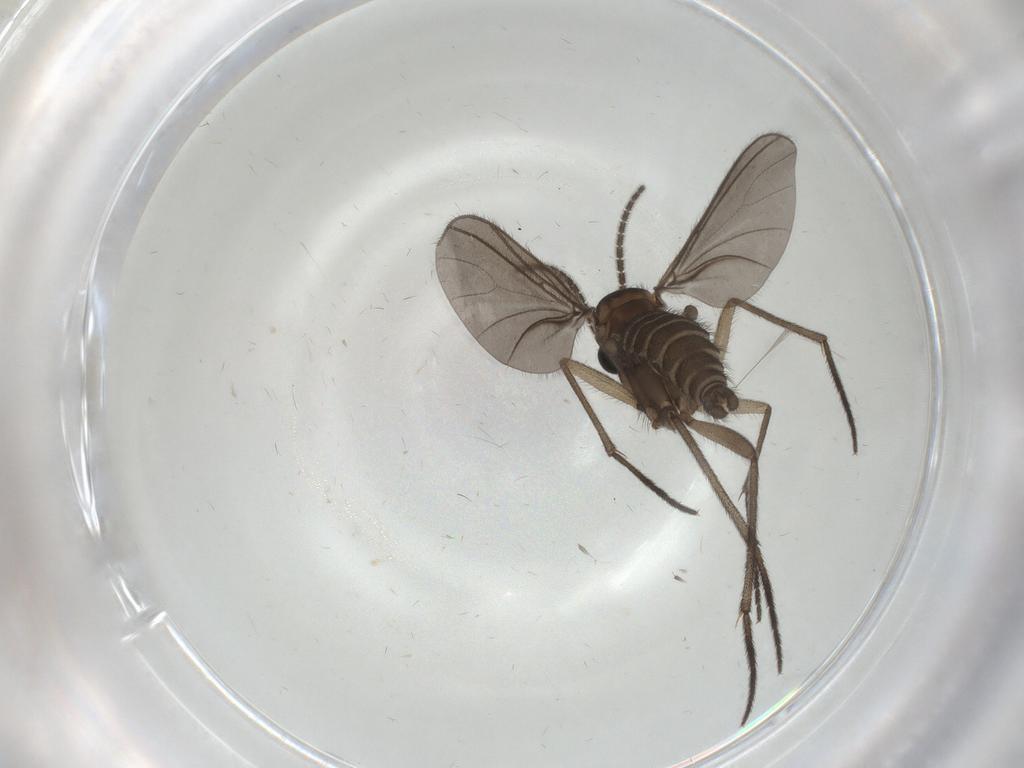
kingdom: Animalia
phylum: Arthropoda
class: Insecta
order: Diptera
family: Sciaridae
